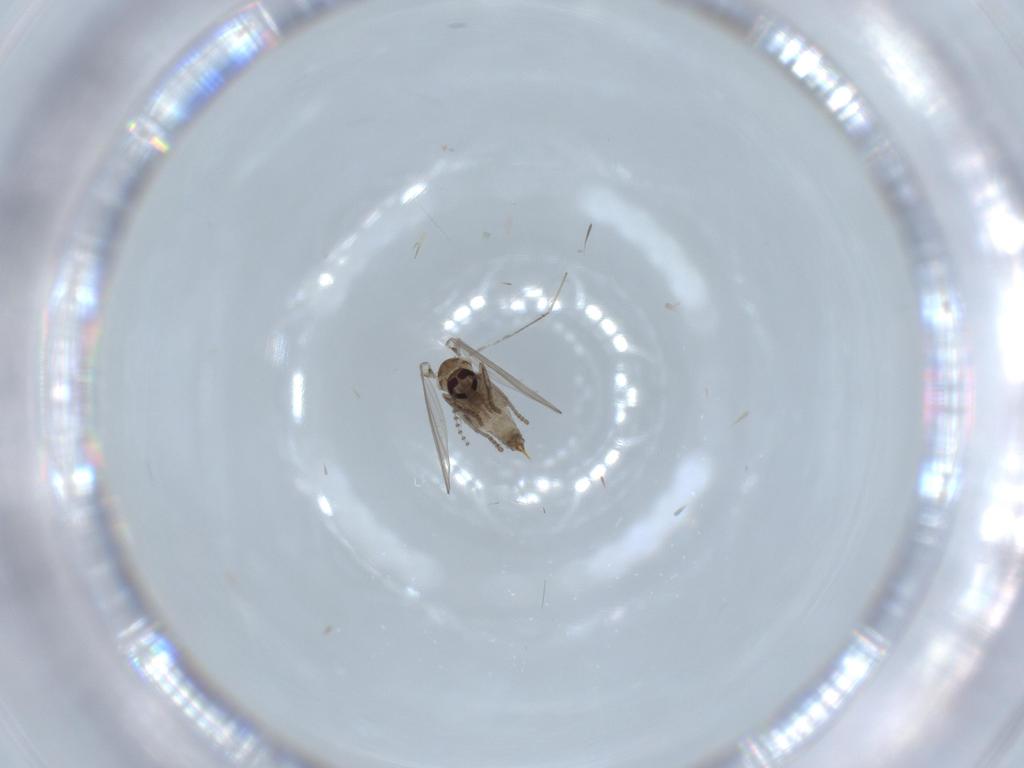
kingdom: Animalia
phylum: Arthropoda
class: Insecta
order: Diptera
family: Psychodidae
